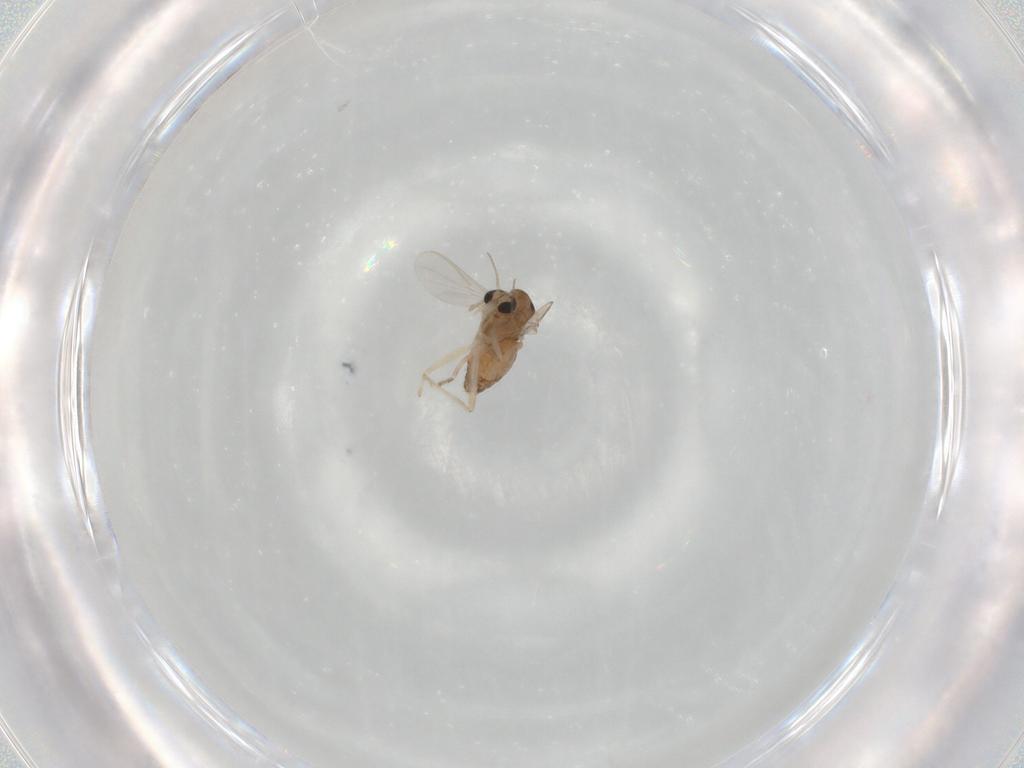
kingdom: Animalia
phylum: Arthropoda
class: Insecta
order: Diptera
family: Chironomidae
